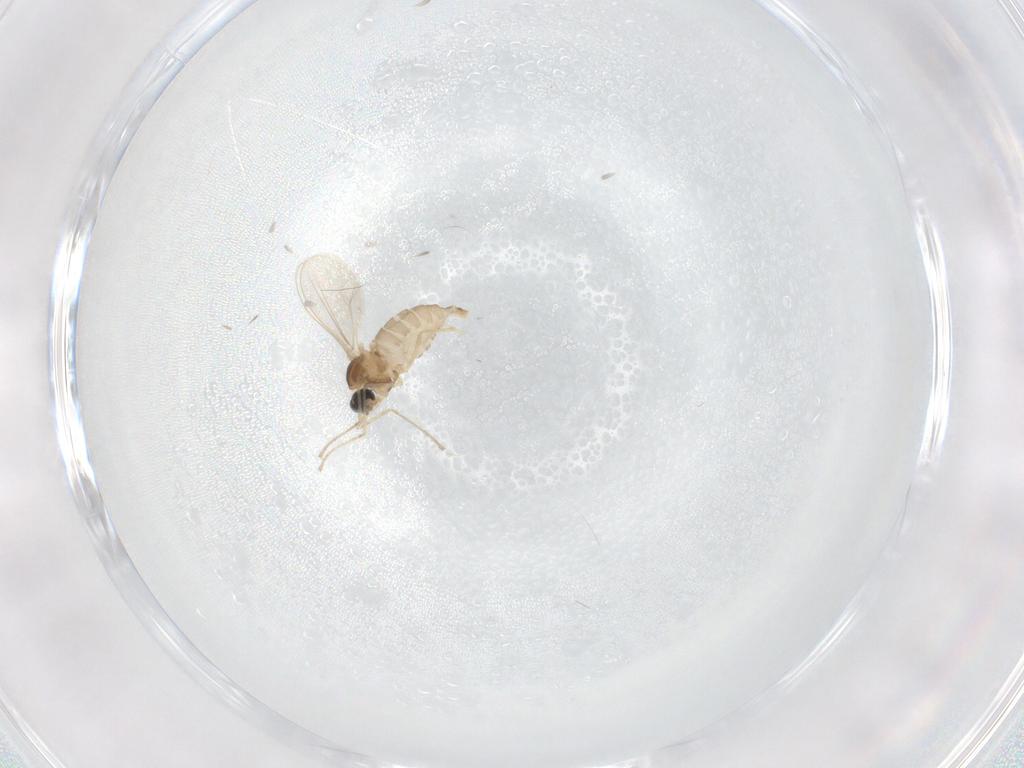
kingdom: Animalia
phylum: Arthropoda
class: Insecta
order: Diptera
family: Cecidomyiidae
